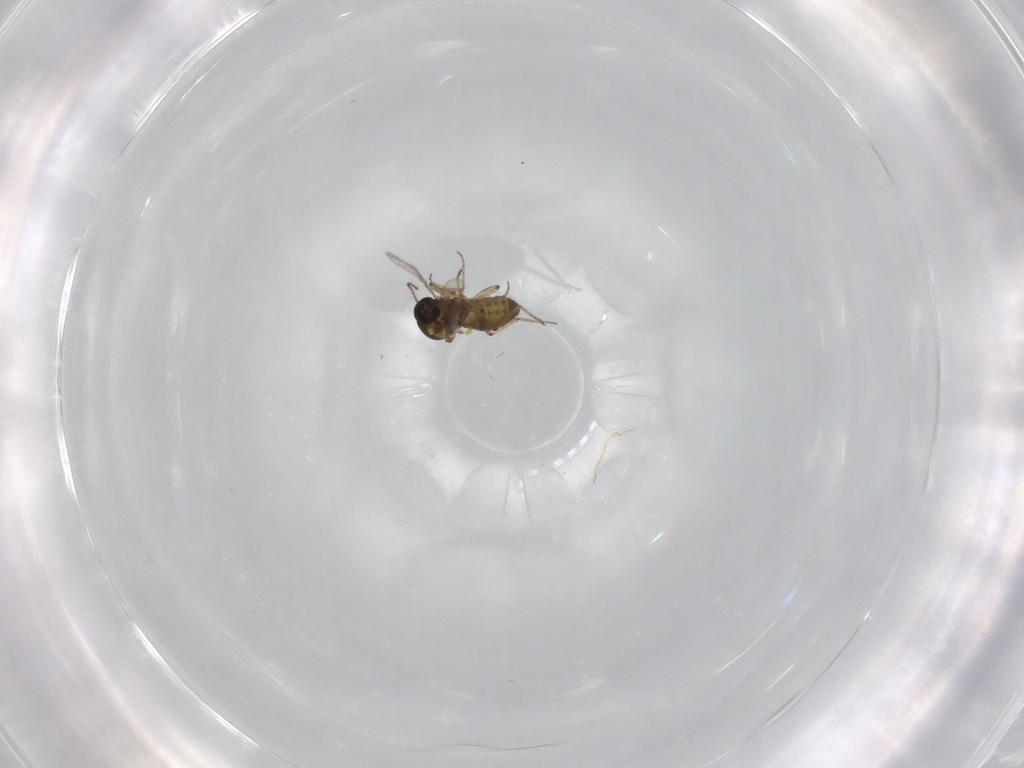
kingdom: Animalia
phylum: Arthropoda
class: Insecta
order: Diptera
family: Ceratopogonidae
